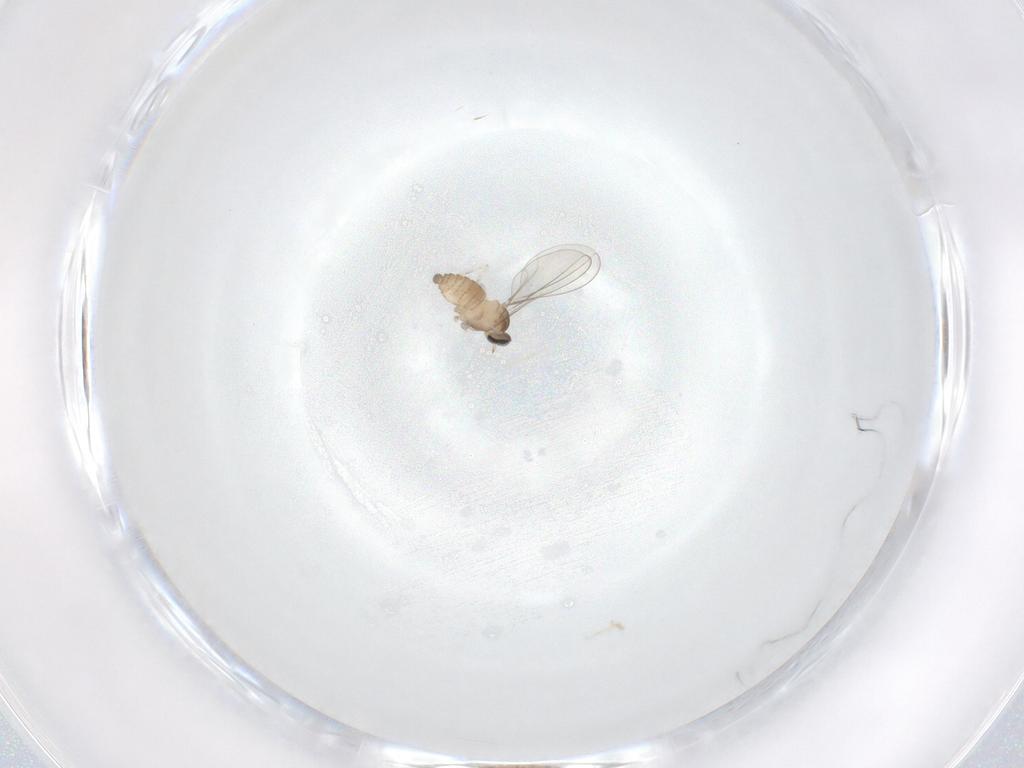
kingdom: Animalia
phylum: Arthropoda
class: Insecta
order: Diptera
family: Cecidomyiidae
